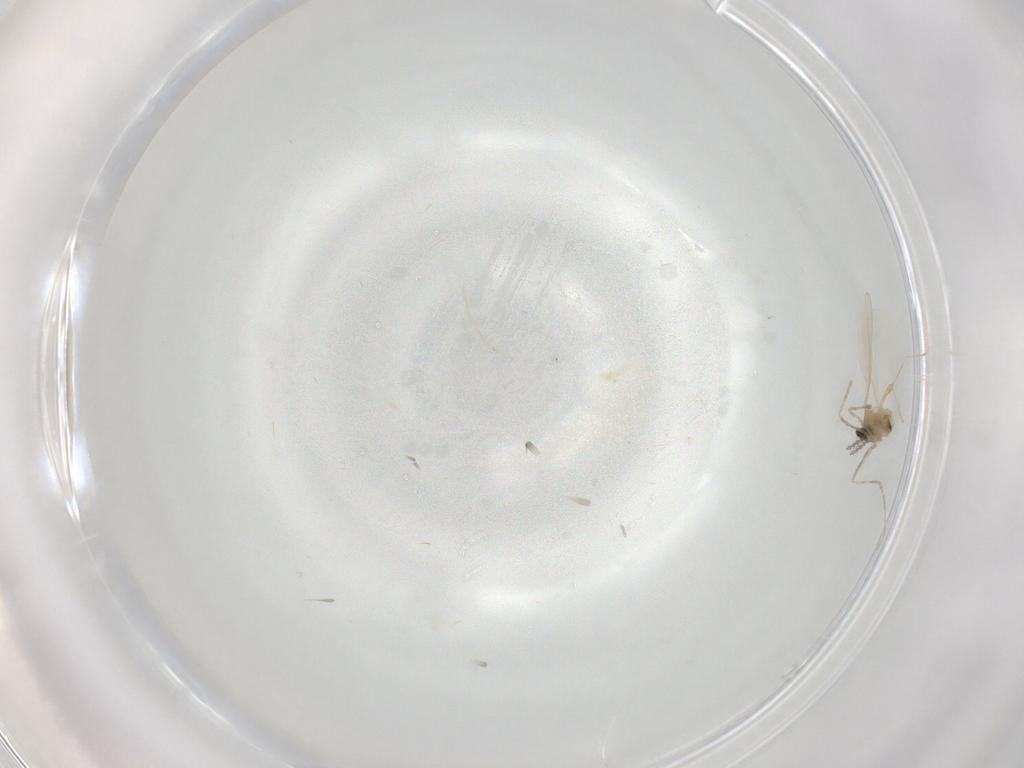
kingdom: Animalia
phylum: Arthropoda
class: Insecta
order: Diptera
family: Cecidomyiidae
